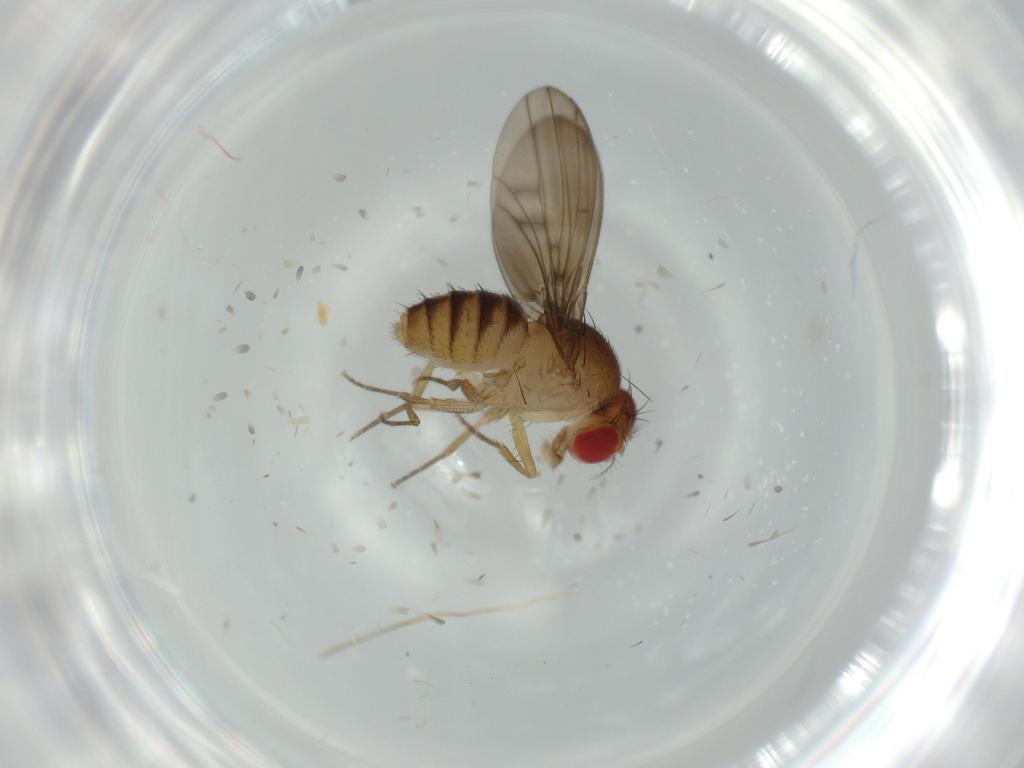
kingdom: Animalia
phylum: Arthropoda
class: Insecta
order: Diptera
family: Drosophilidae
